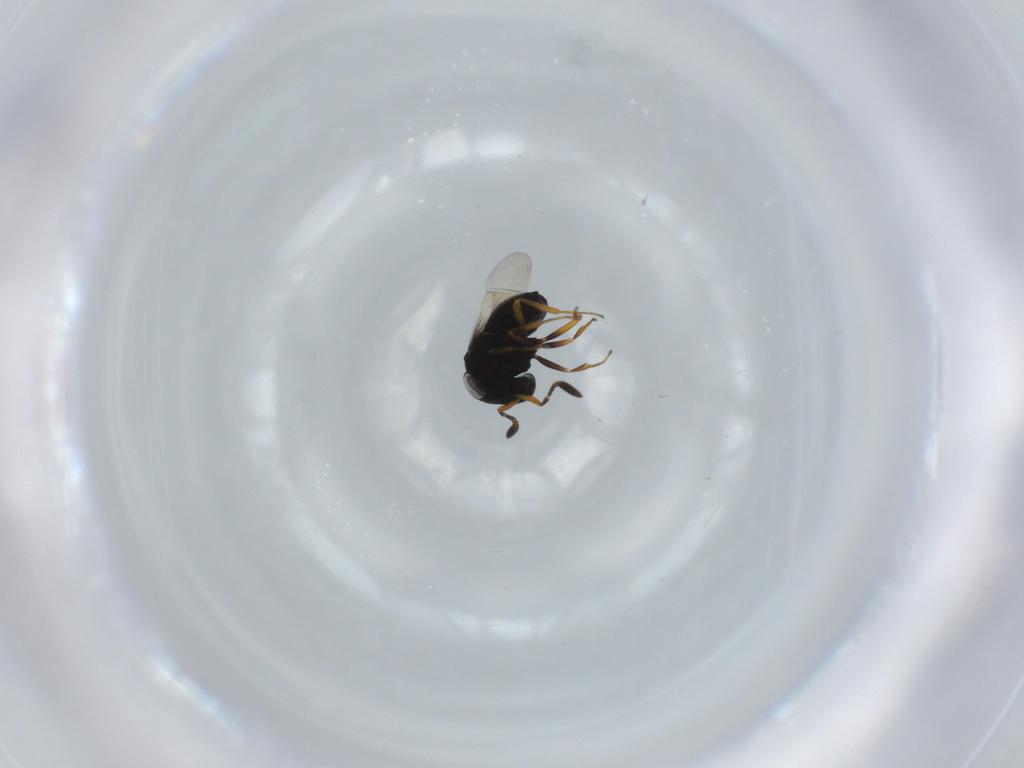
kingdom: Animalia
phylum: Arthropoda
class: Insecta
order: Hymenoptera
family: Scelionidae
